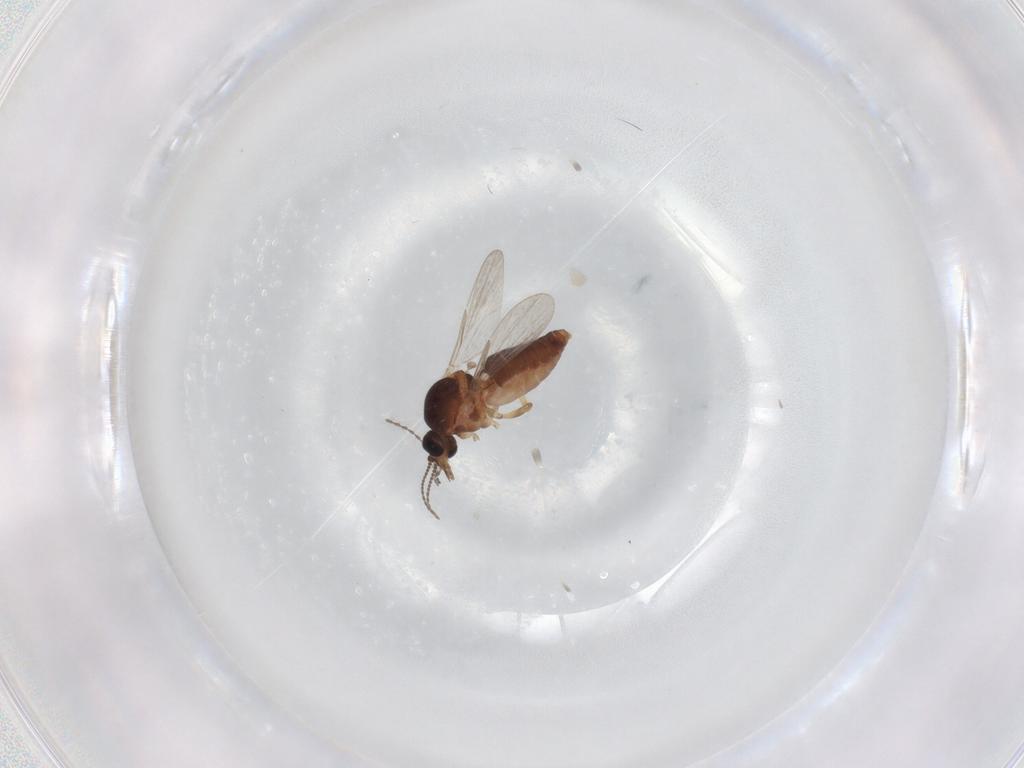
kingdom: Animalia
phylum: Arthropoda
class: Insecta
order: Diptera
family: Ceratopogonidae
